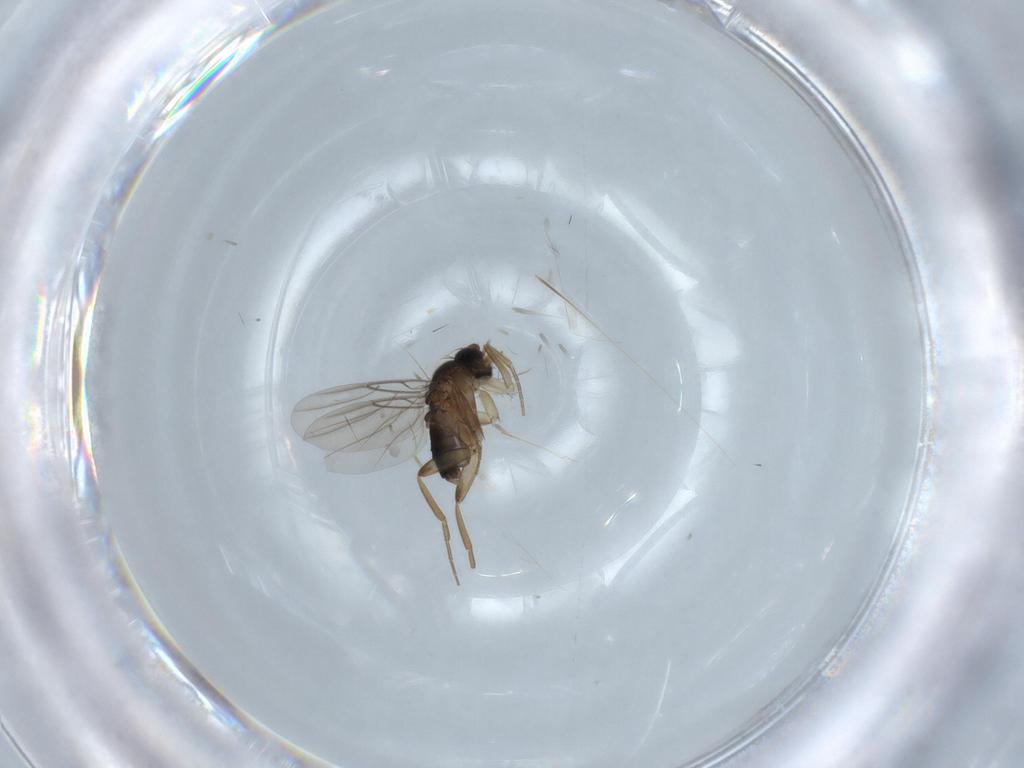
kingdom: Animalia
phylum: Arthropoda
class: Insecta
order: Diptera
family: Phoridae
